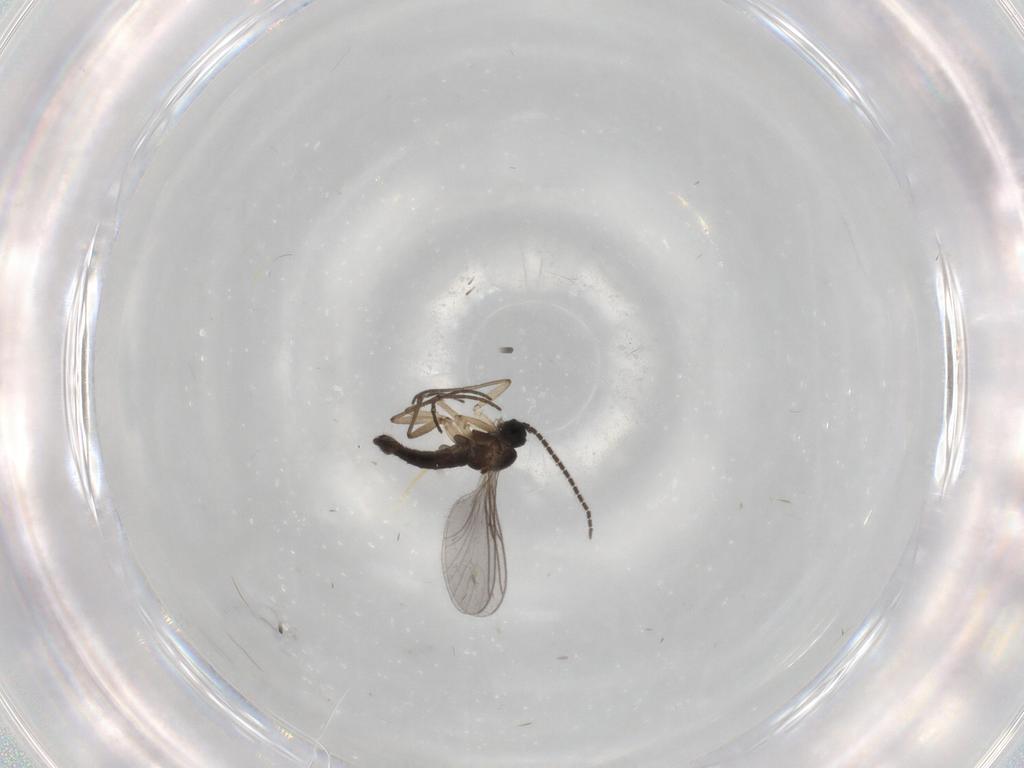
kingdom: Animalia
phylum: Arthropoda
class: Insecta
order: Diptera
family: Sciaridae
